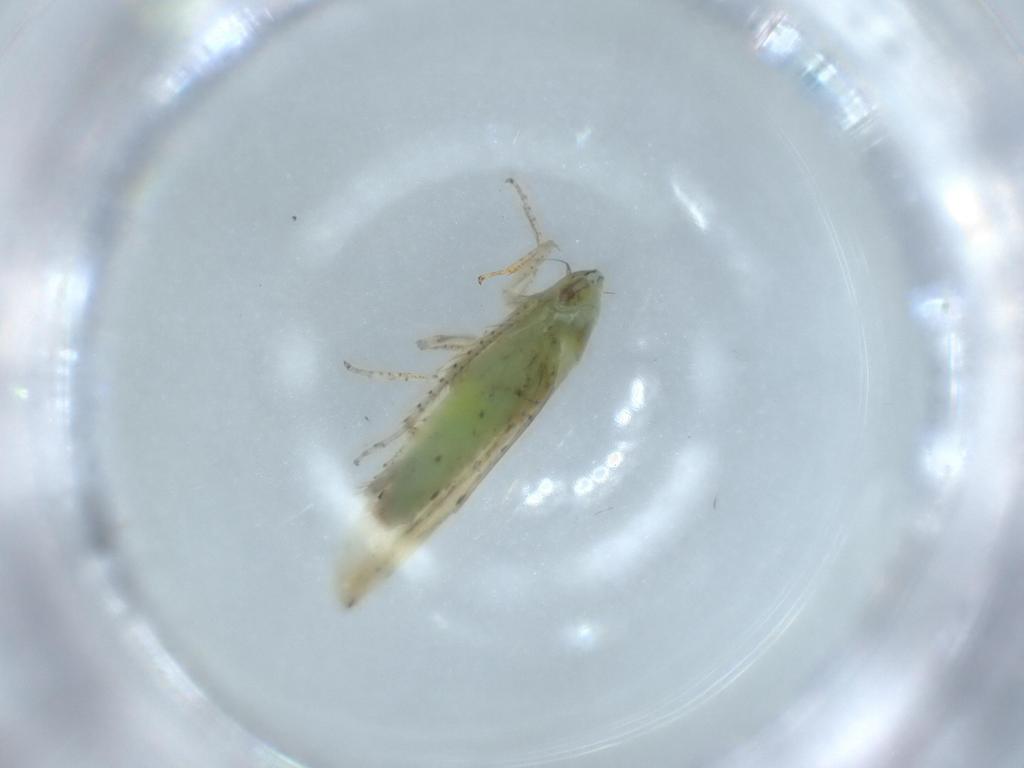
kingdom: Animalia
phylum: Arthropoda
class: Insecta
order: Hemiptera
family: Cicadellidae
